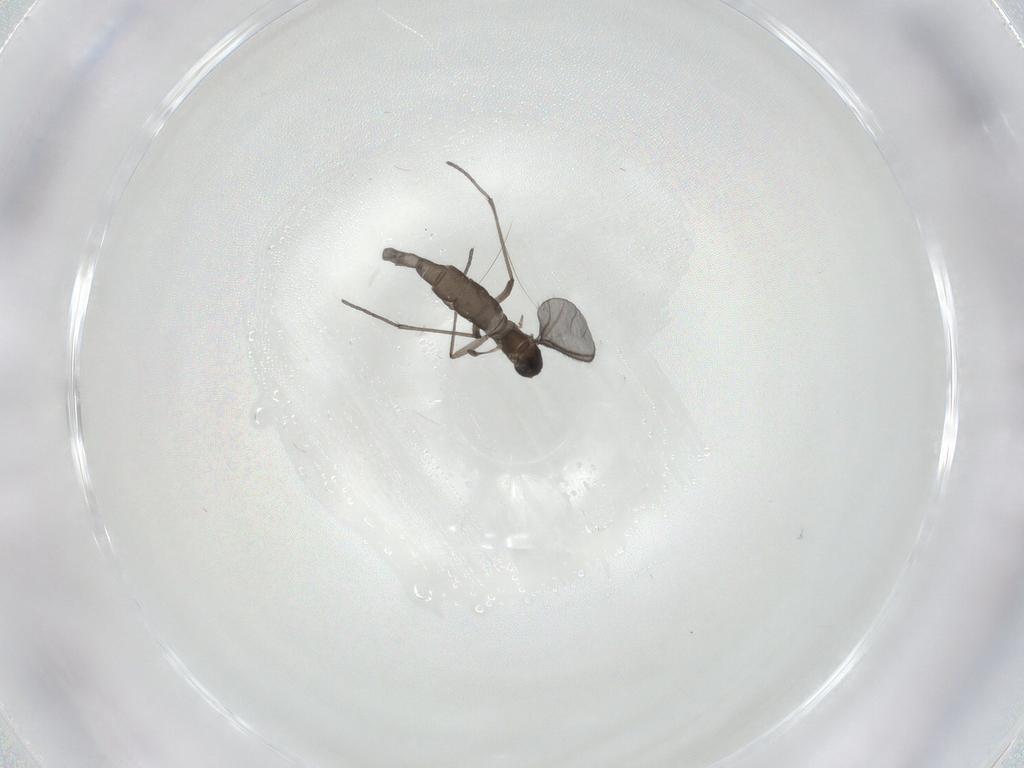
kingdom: Animalia
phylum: Arthropoda
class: Insecta
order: Diptera
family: Sciaridae
